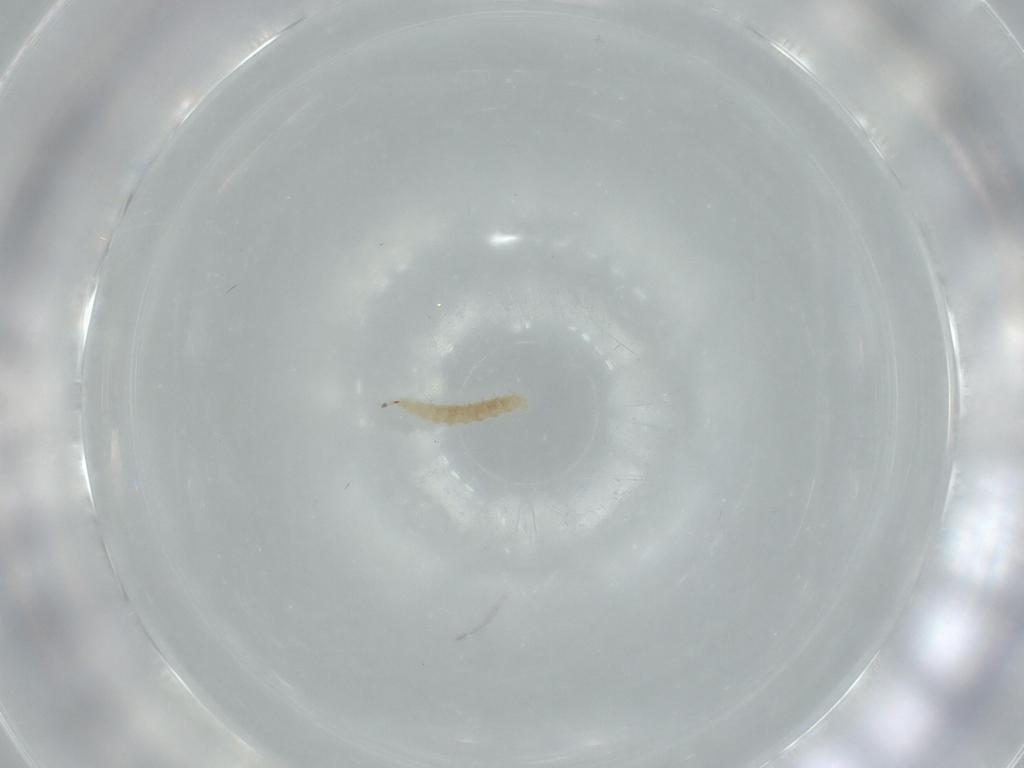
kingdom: Animalia
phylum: Arthropoda
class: Insecta
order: Diptera
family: Cecidomyiidae
